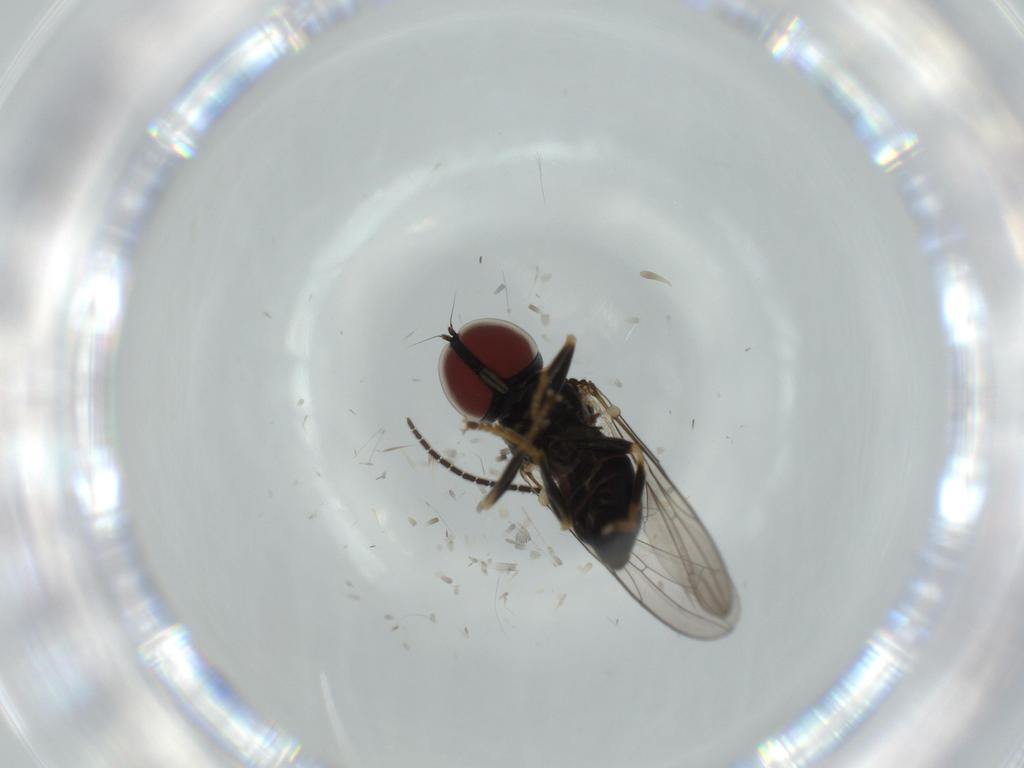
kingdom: Animalia
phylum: Arthropoda
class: Insecta
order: Diptera
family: Pipunculidae
